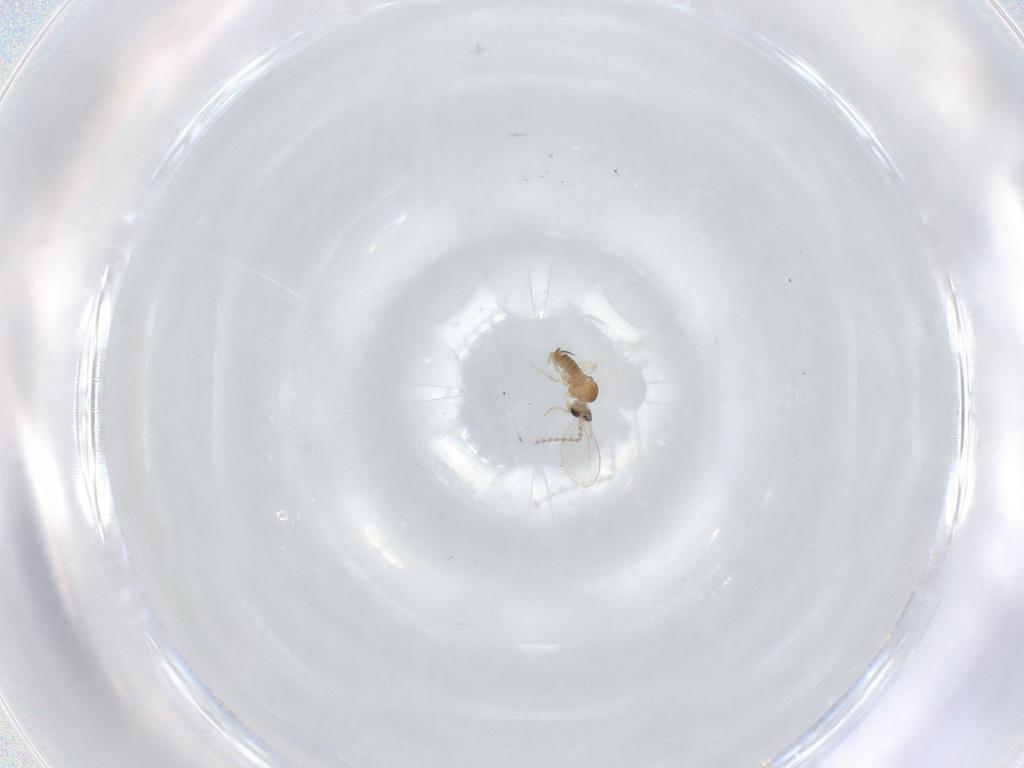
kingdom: Animalia
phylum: Arthropoda
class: Insecta
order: Diptera
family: Cecidomyiidae
